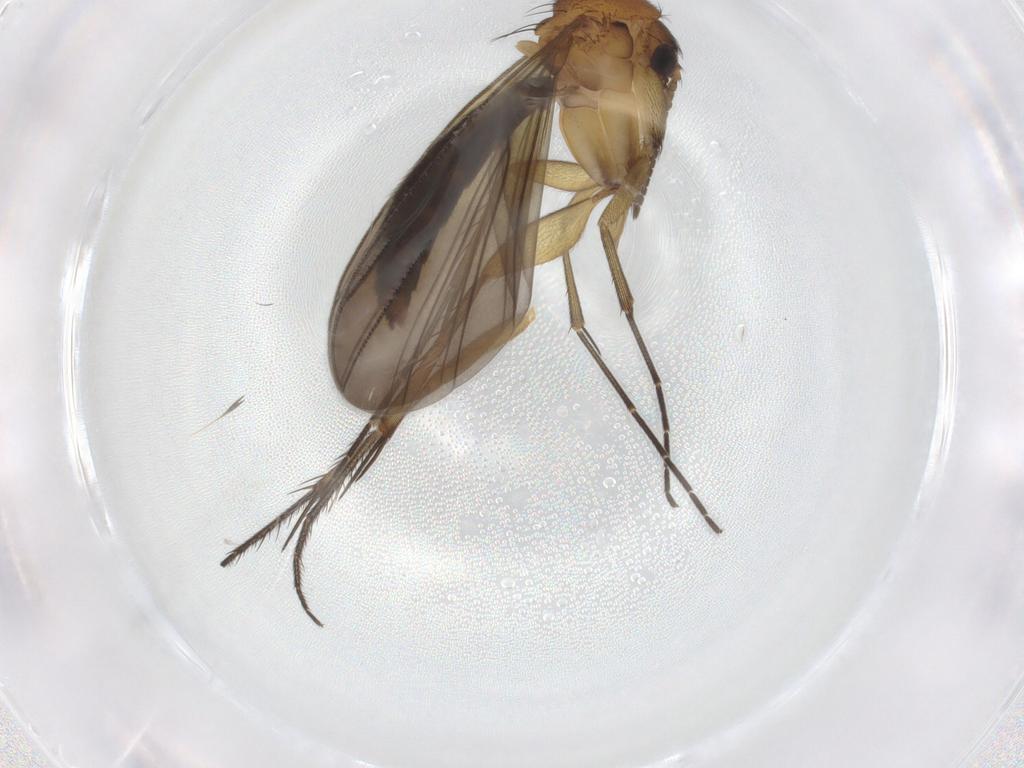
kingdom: Animalia
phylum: Arthropoda
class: Insecta
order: Diptera
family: Mycetophilidae
